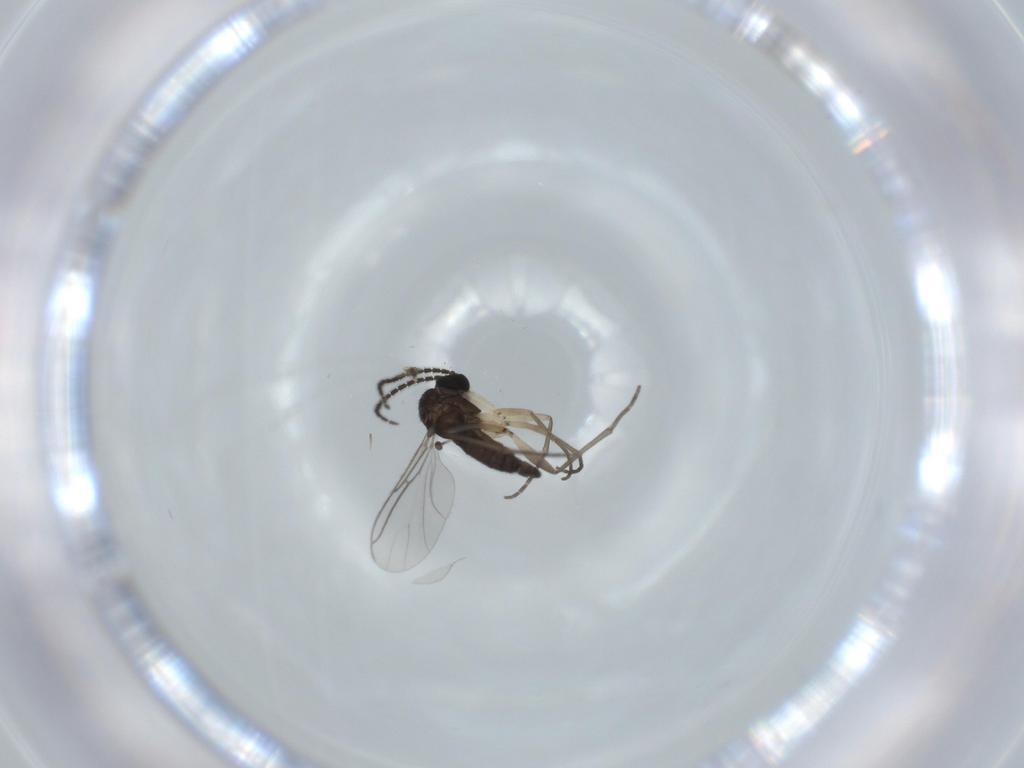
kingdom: Animalia
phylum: Arthropoda
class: Insecta
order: Diptera
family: Sciaridae
